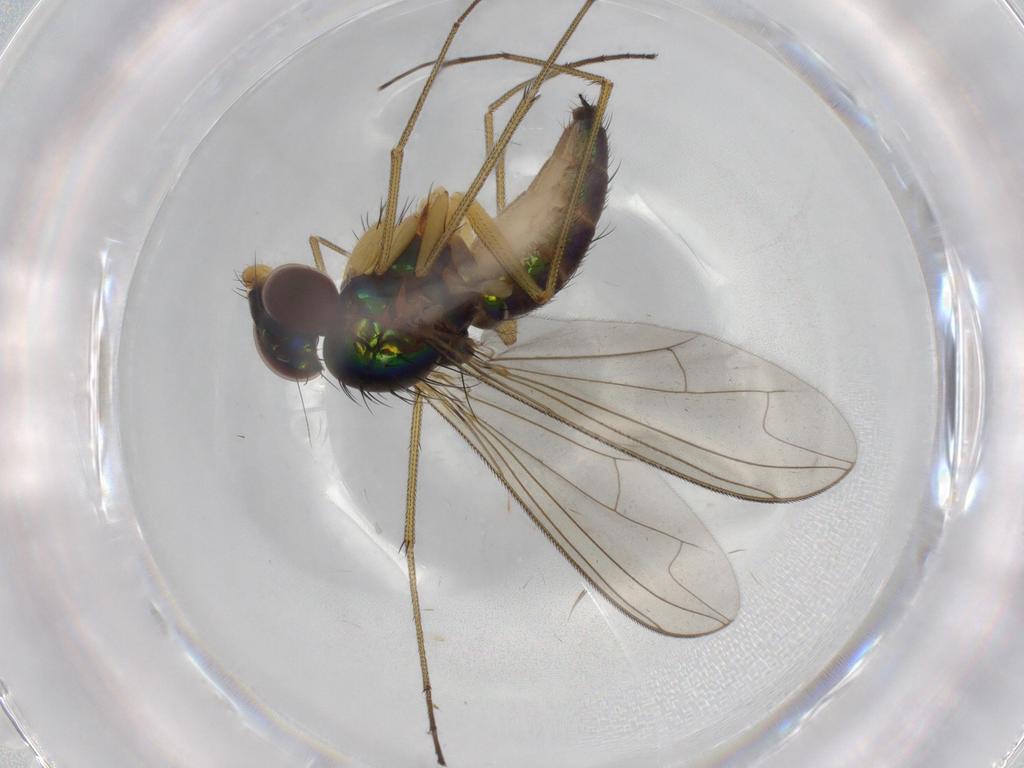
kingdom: Animalia
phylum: Arthropoda
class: Insecta
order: Diptera
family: Dolichopodidae
